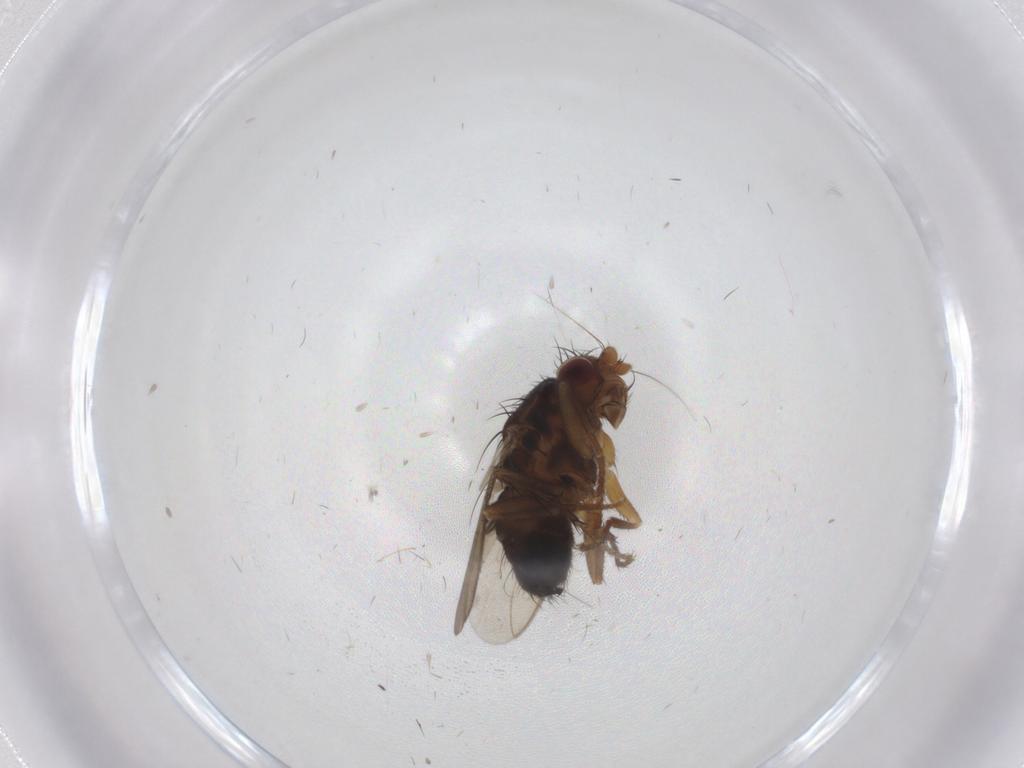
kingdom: Animalia
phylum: Arthropoda
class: Insecta
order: Diptera
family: Sphaeroceridae
